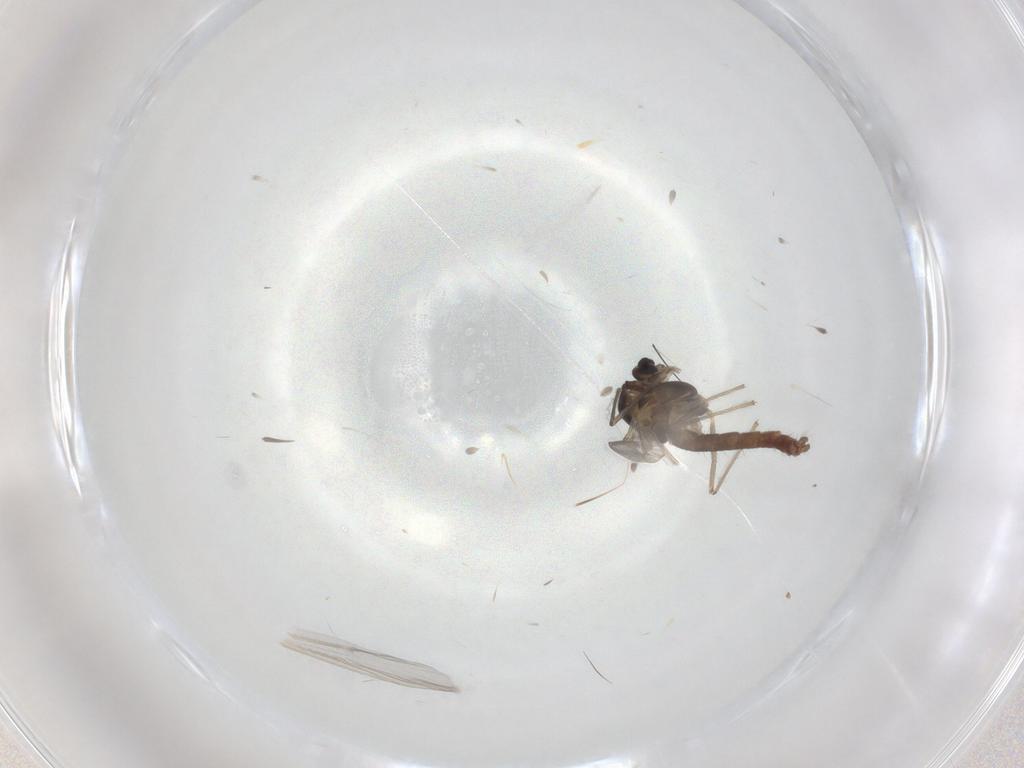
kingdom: Animalia
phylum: Arthropoda
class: Insecta
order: Diptera
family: Chironomidae
